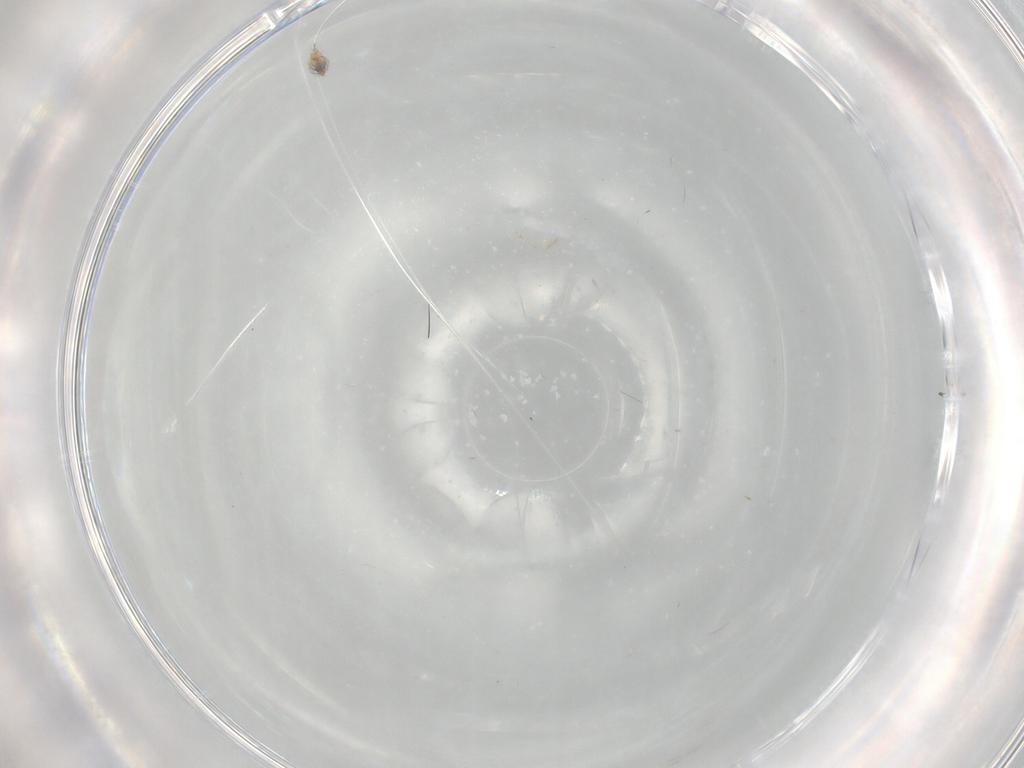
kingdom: Animalia
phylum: Arthropoda
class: Insecta
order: Diptera
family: Cecidomyiidae
